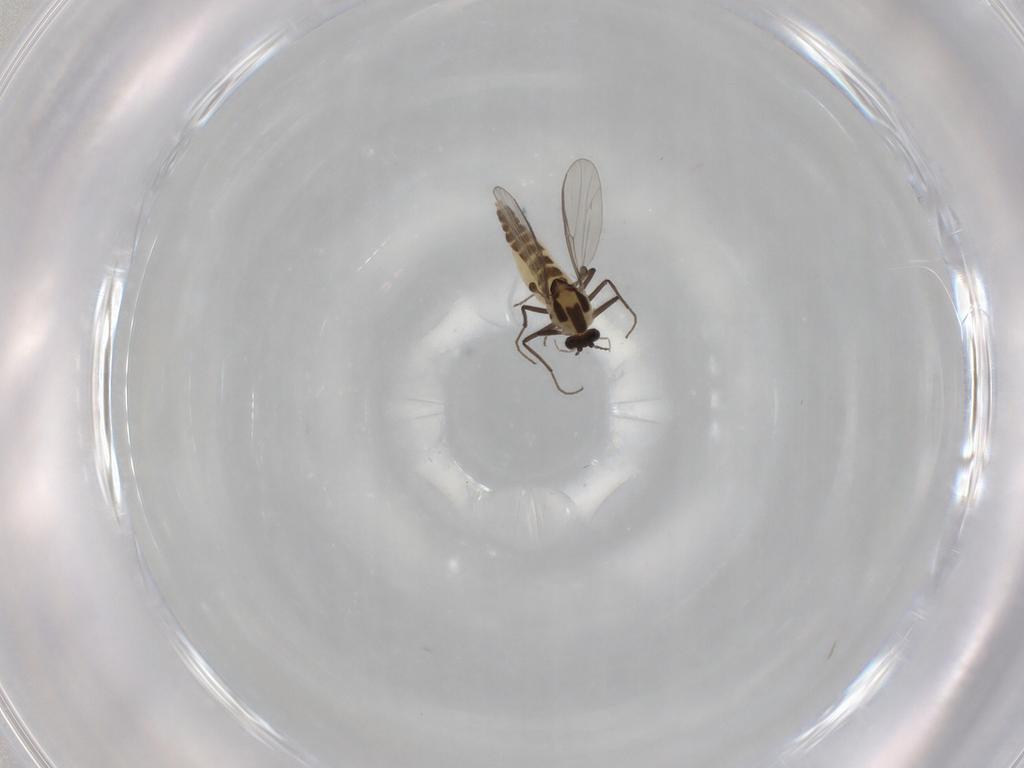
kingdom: Animalia
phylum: Arthropoda
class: Insecta
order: Diptera
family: Chironomidae
